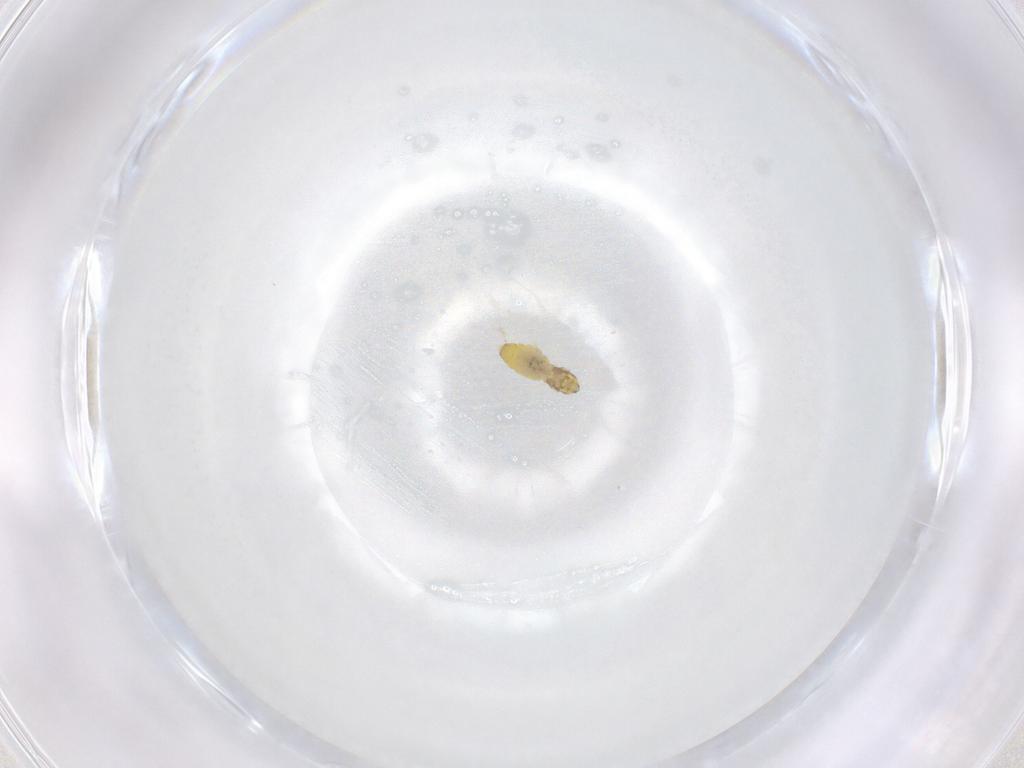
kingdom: Animalia
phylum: Arthropoda
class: Insecta
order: Diptera
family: Cecidomyiidae
